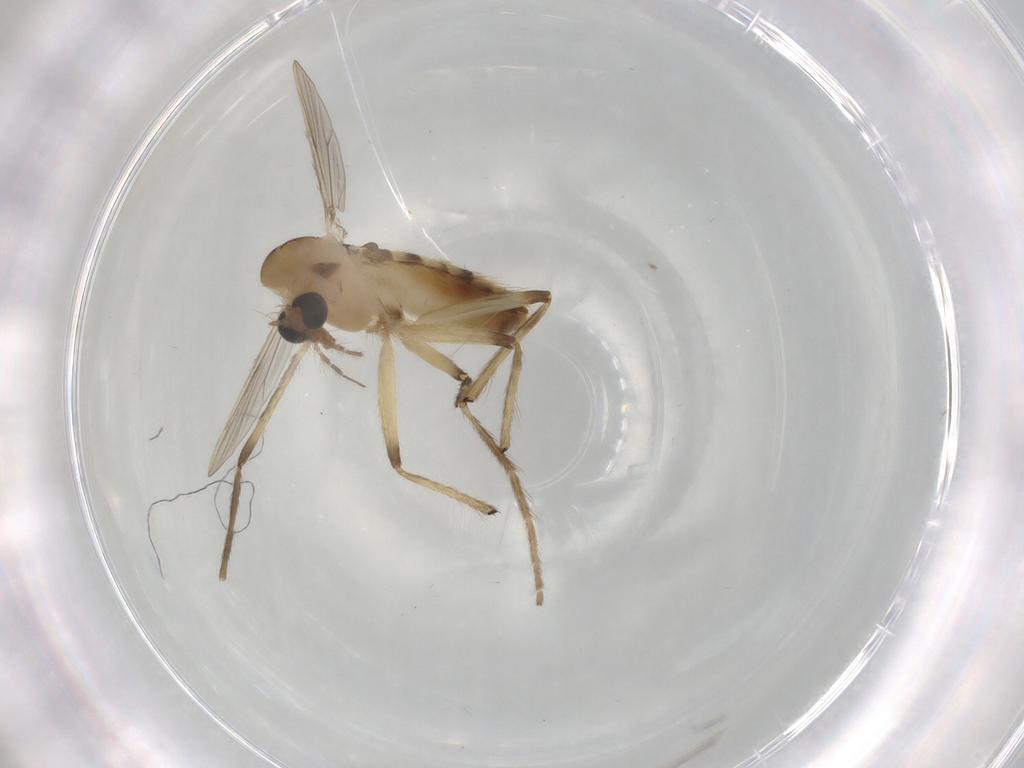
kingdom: Animalia
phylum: Arthropoda
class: Insecta
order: Diptera
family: Chironomidae
